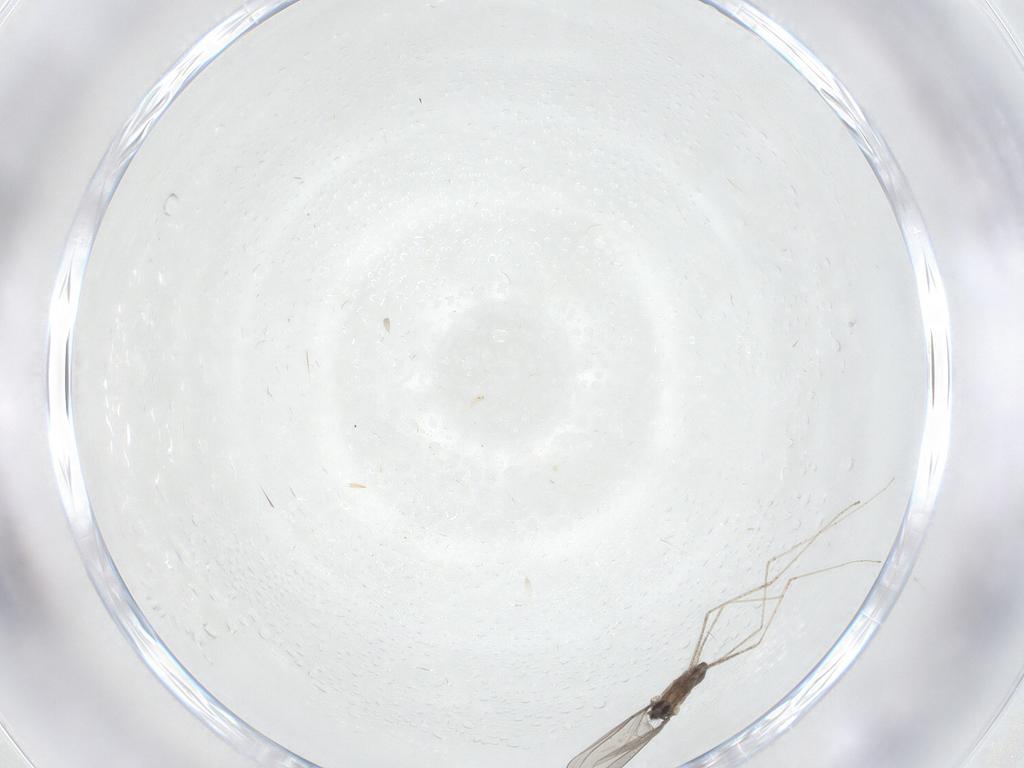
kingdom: Animalia
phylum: Arthropoda
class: Insecta
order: Diptera
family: Cecidomyiidae
